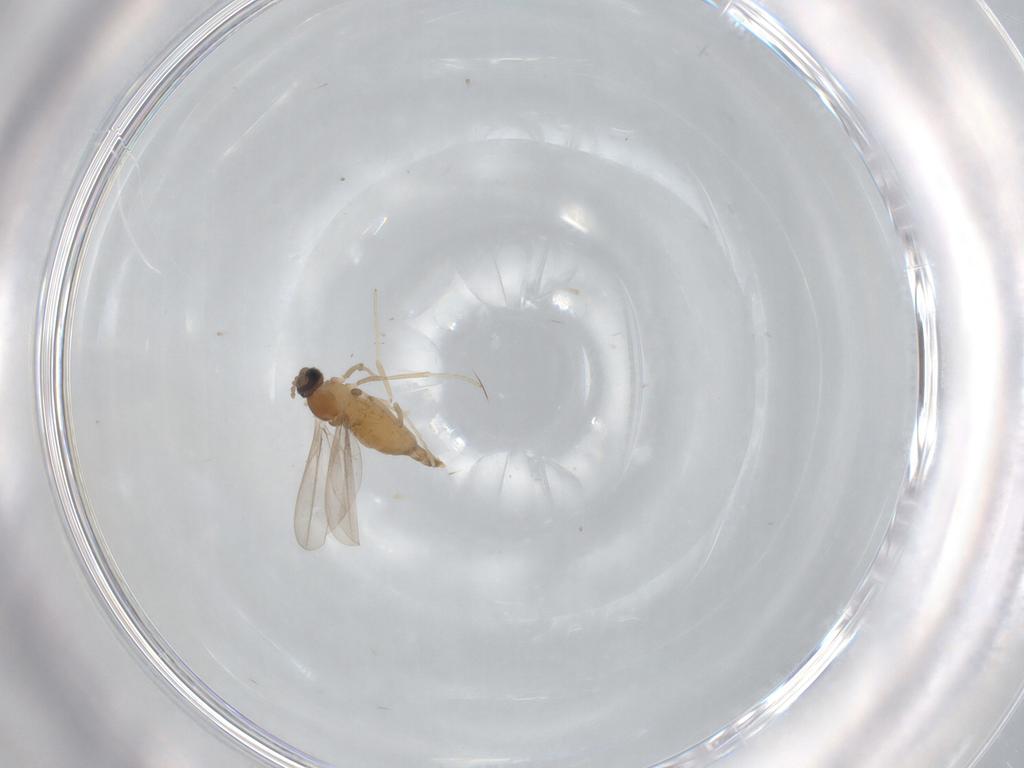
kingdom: Animalia
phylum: Arthropoda
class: Insecta
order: Diptera
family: Cecidomyiidae
